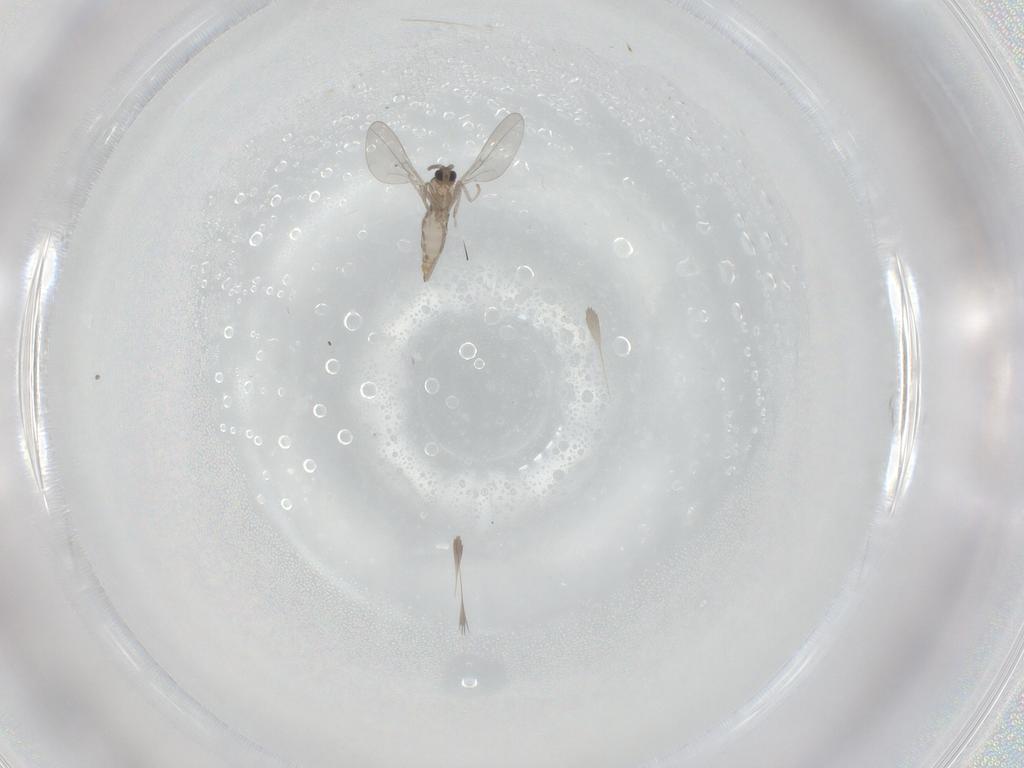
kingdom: Animalia
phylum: Arthropoda
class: Insecta
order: Diptera
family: Cecidomyiidae
